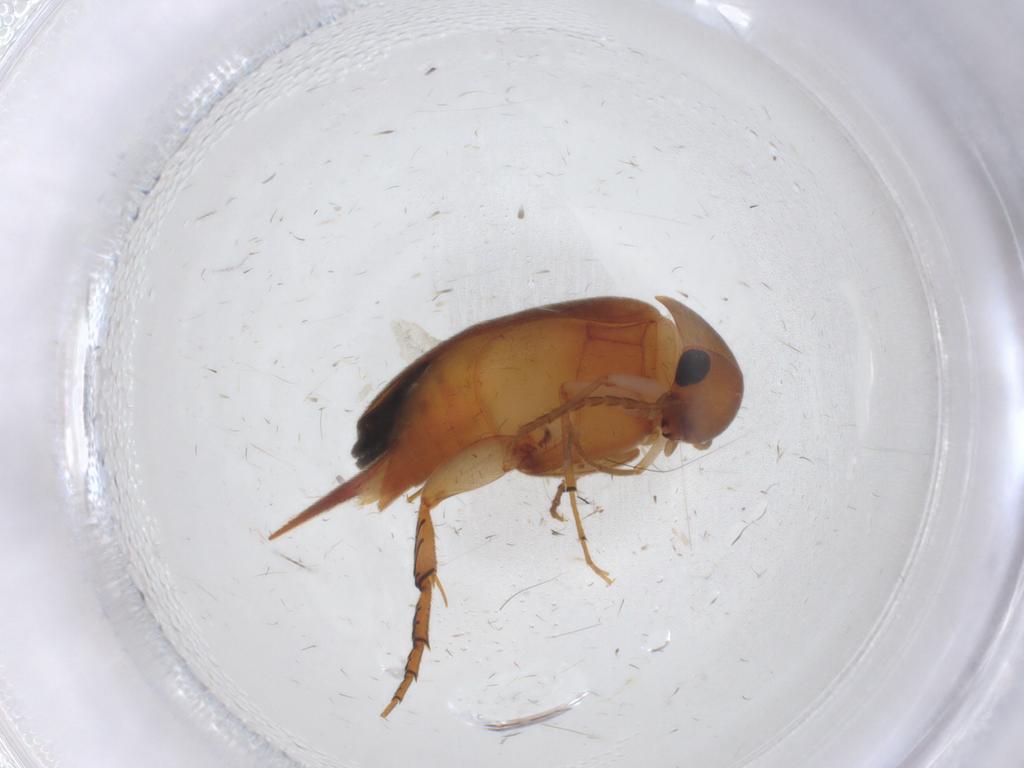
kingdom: Animalia
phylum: Arthropoda
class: Insecta
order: Coleoptera
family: Mordellidae
